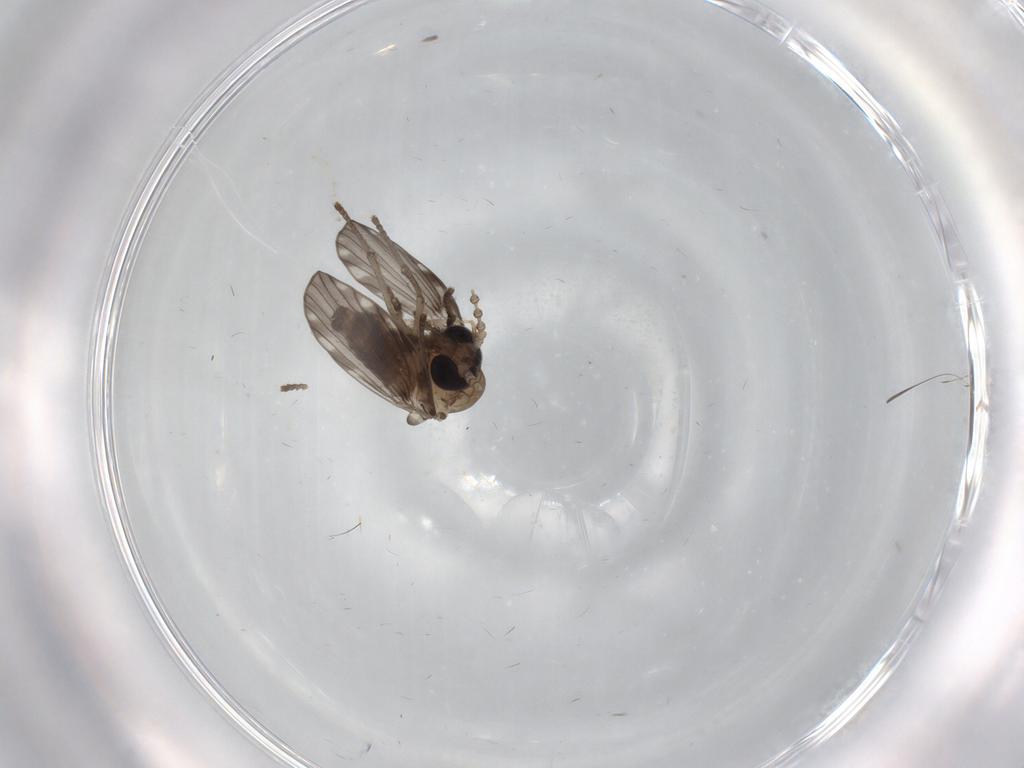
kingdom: Animalia
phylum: Arthropoda
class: Insecta
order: Diptera
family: Psychodidae
